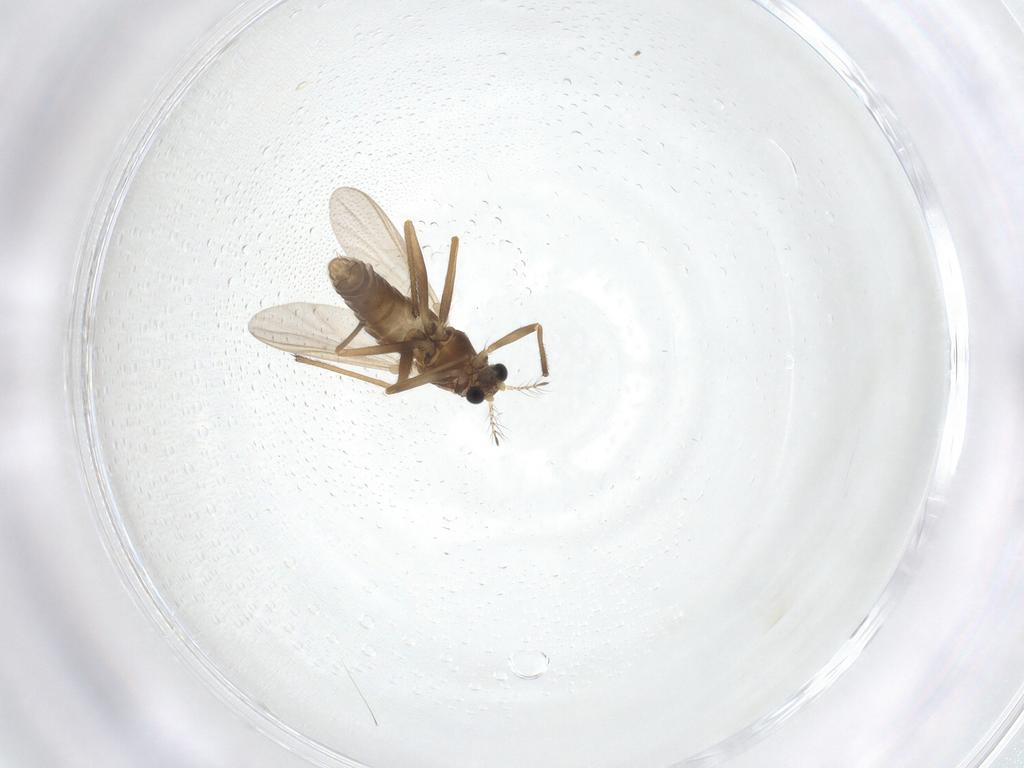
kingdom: Animalia
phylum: Arthropoda
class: Insecta
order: Diptera
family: Chironomidae
